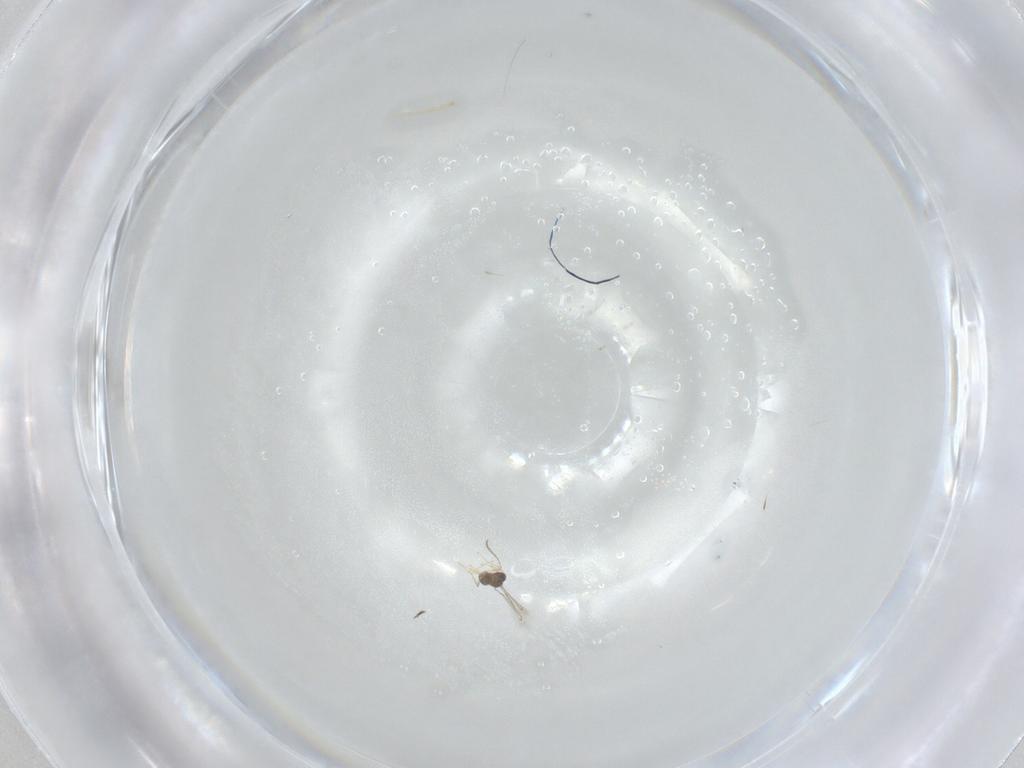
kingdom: Animalia
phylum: Arthropoda
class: Insecta
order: Hymenoptera
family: Eulophidae
